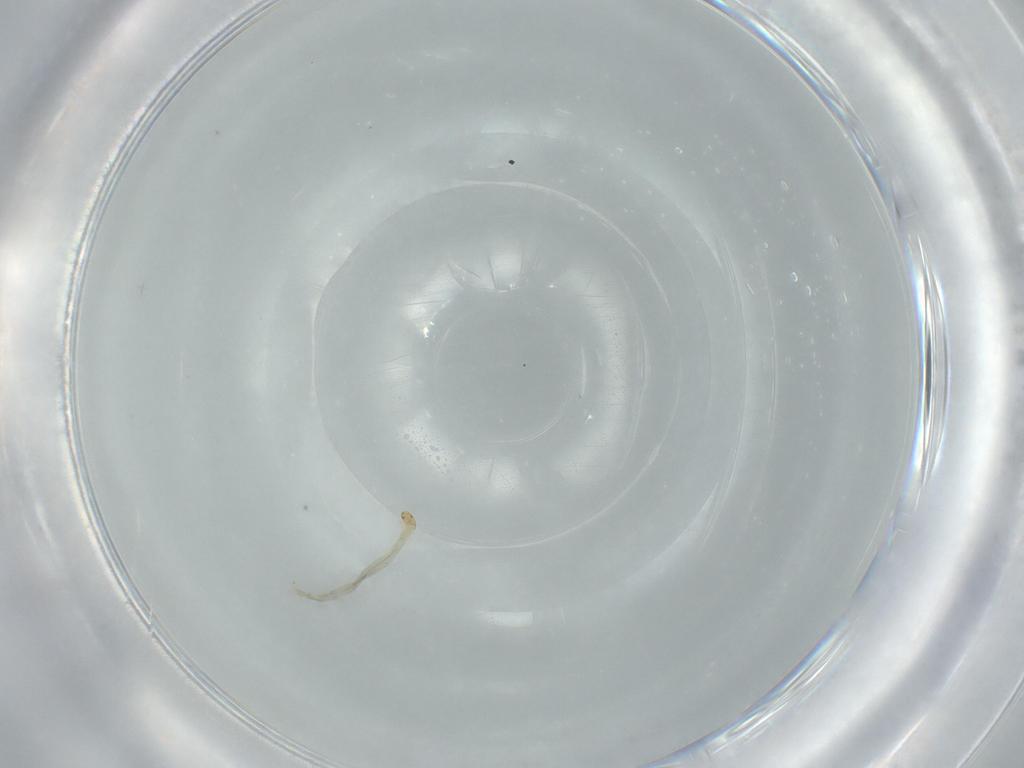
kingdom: Animalia
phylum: Arthropoda
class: Insecta
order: Diptera
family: Chironomidae
